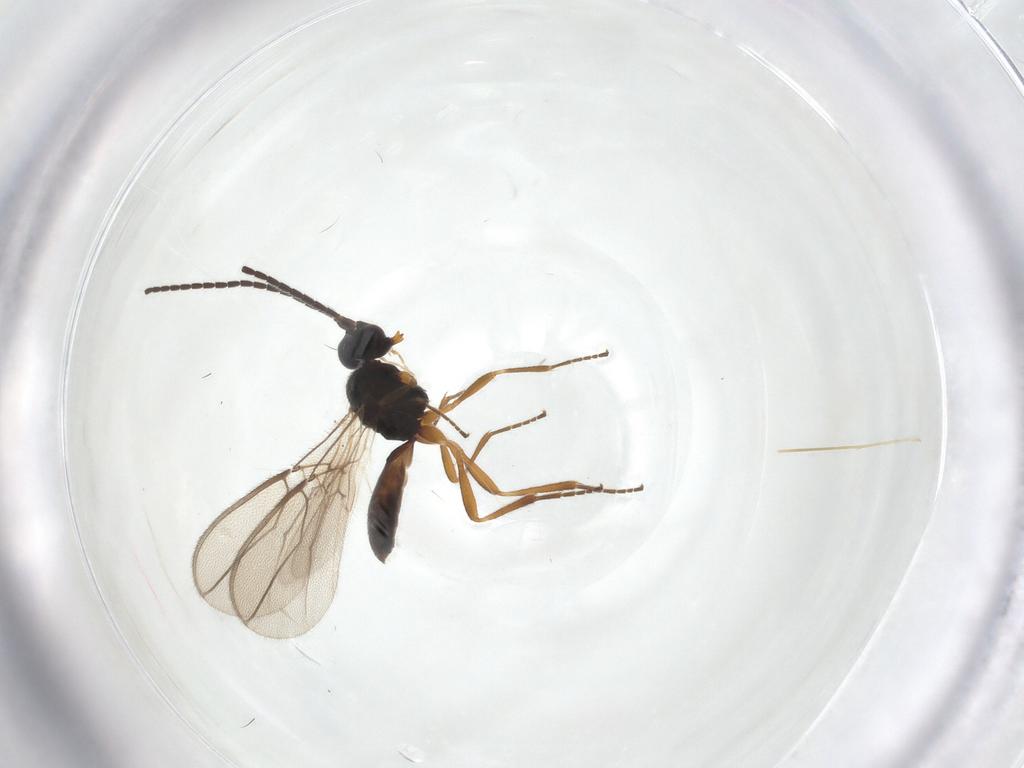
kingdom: Animalia
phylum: Arthropoda
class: Insecta
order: Hymenoptera
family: Braconidae
